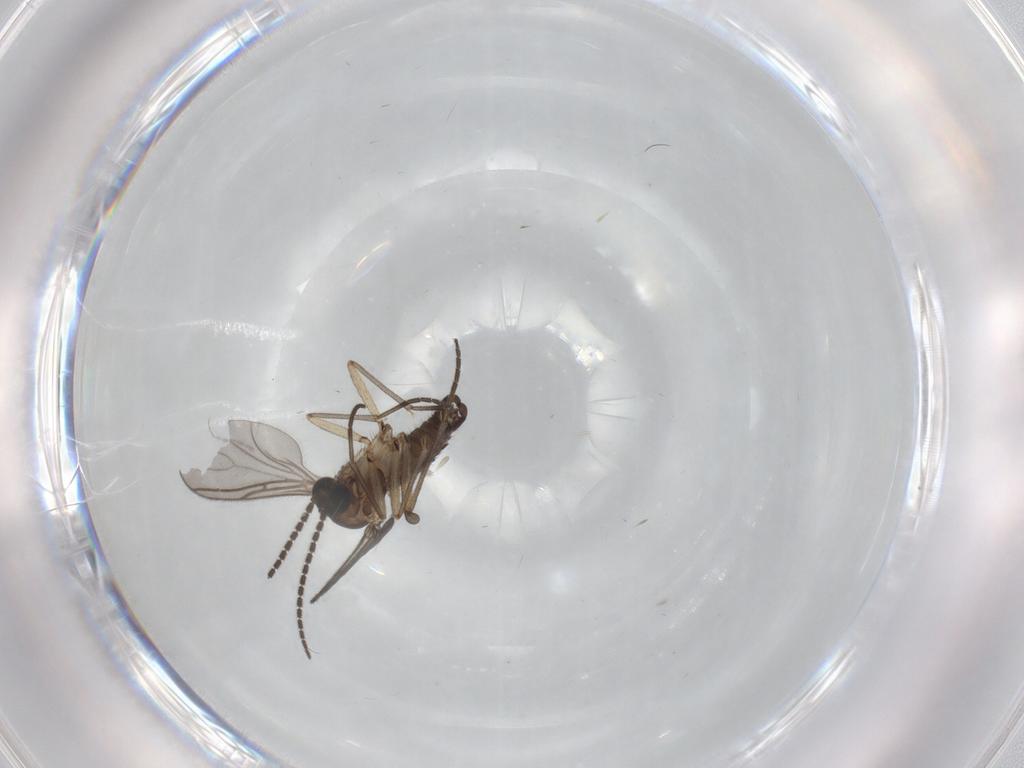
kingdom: Animalia
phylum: Arthropoda
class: Insecta
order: Diptera
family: Sciaridae
